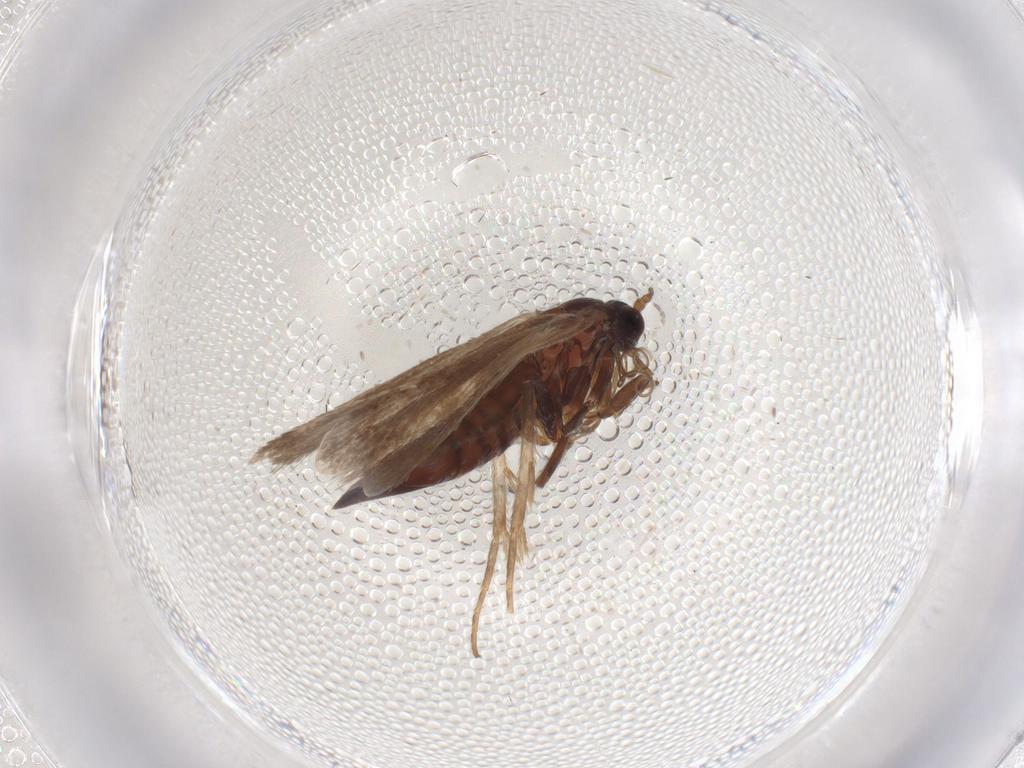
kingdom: Animalia
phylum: Arthropoda
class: Insecta
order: Lepidoptera
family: Adelidae
